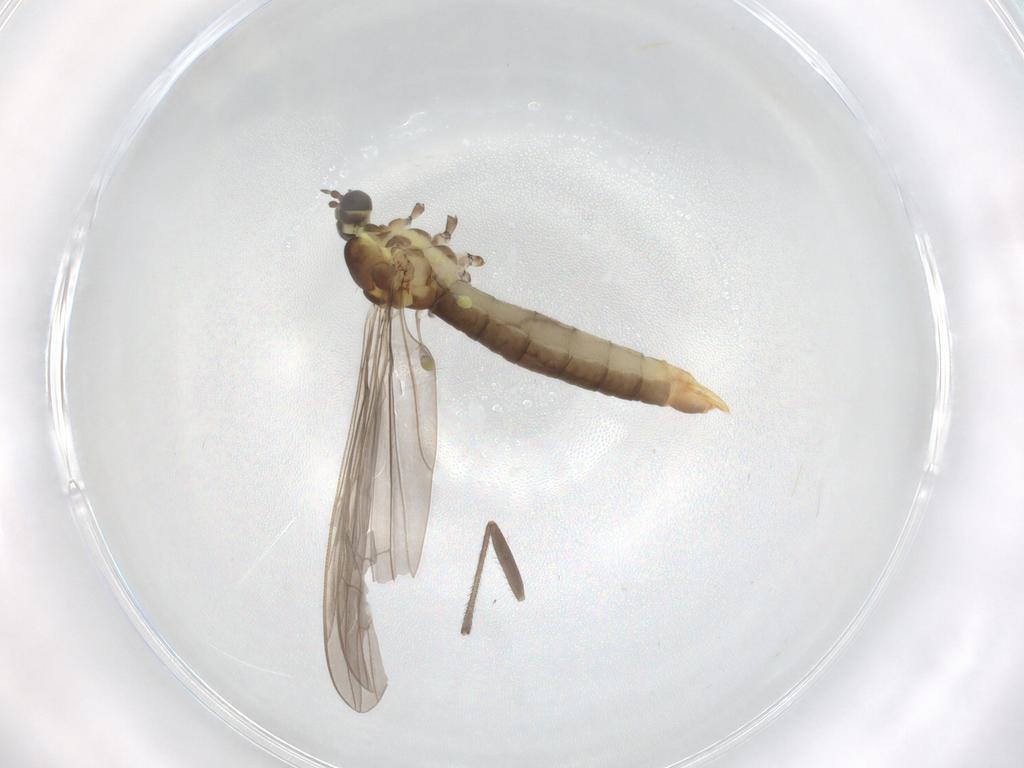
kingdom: Animalia
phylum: Arthropoda
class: Insecta
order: Diptera
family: Limoniidae
